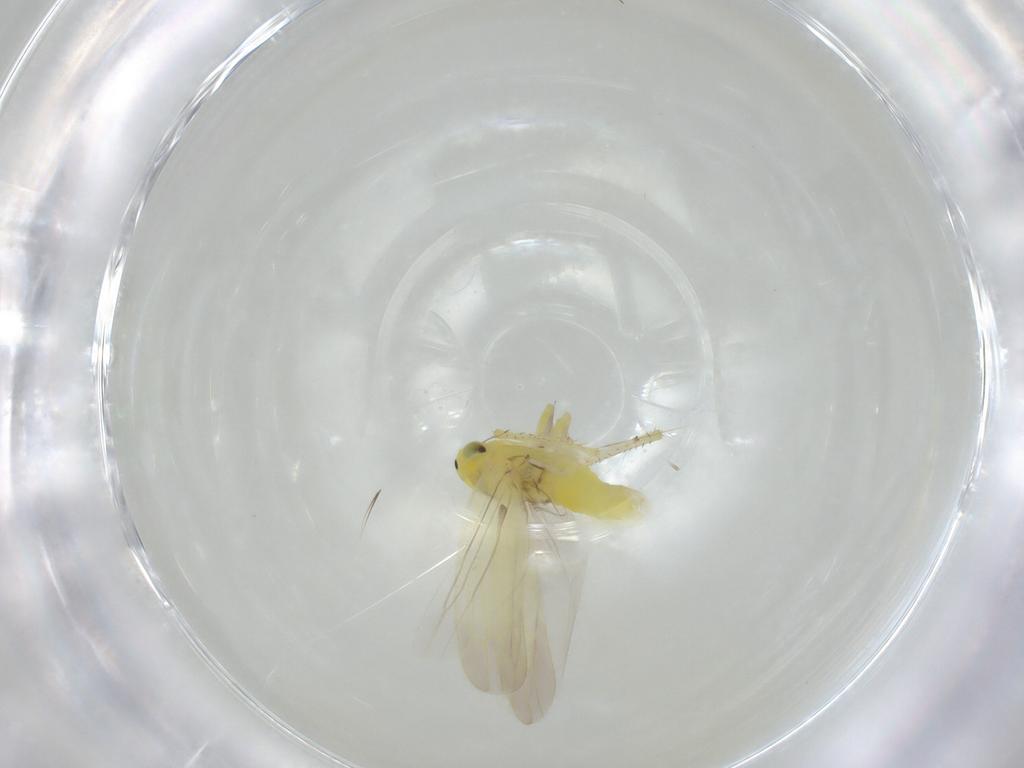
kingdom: Animalia
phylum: Arthropoda
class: Insecta
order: Hemiptera
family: Cicadellidae
